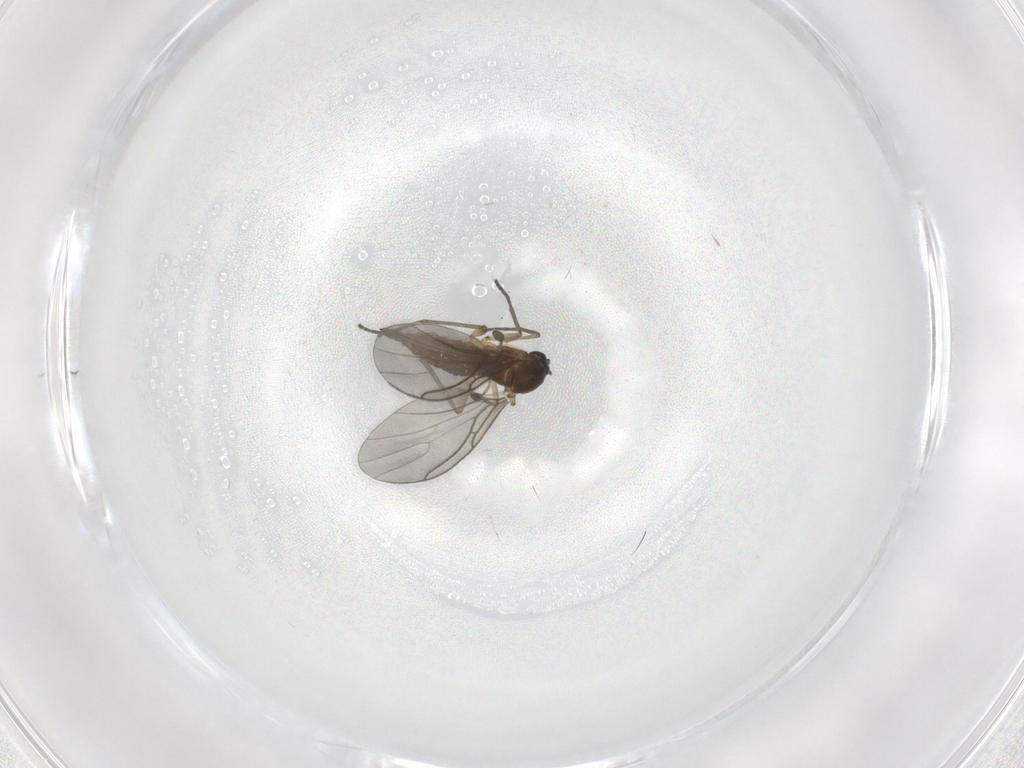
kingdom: Animalia
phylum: Arthropoda
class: Insecta
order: Diptera
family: Sciaridae
